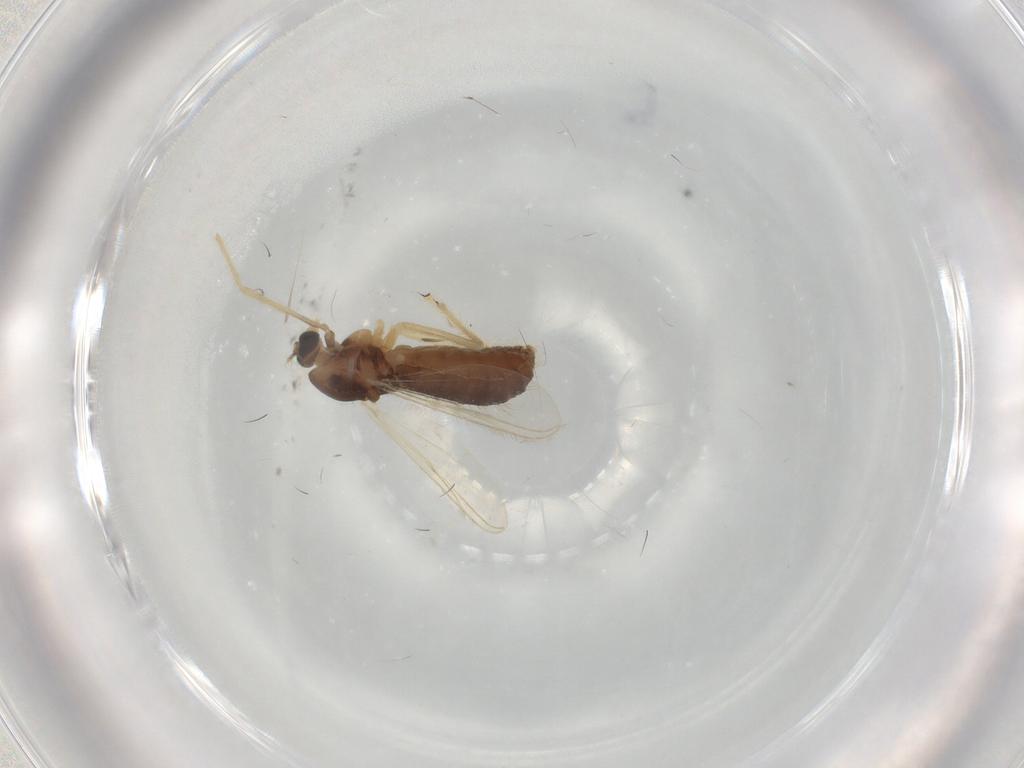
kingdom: Animalia
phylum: Arthropoda
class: Insecta
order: Diptera
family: Chironomidae
